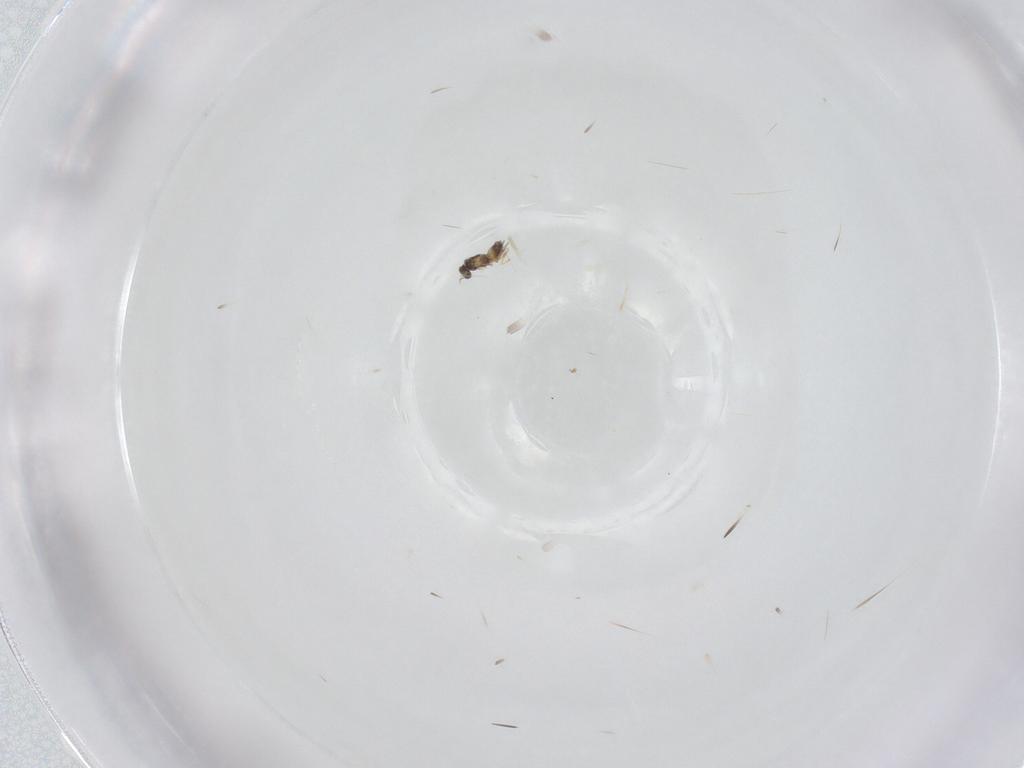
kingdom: Animalia
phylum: Arthropoda
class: Insecta
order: Hymenoptera
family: Mymaridae
